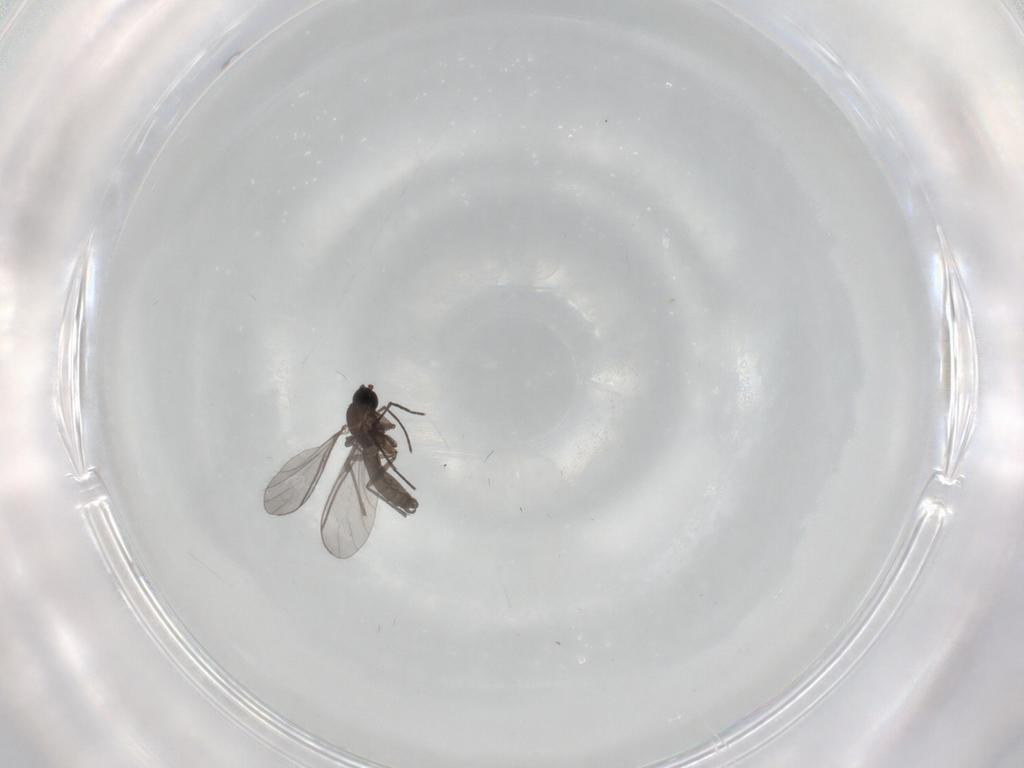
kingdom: Animalia
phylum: Arthropoda
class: Insecta
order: Diptera
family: Sciaridae
